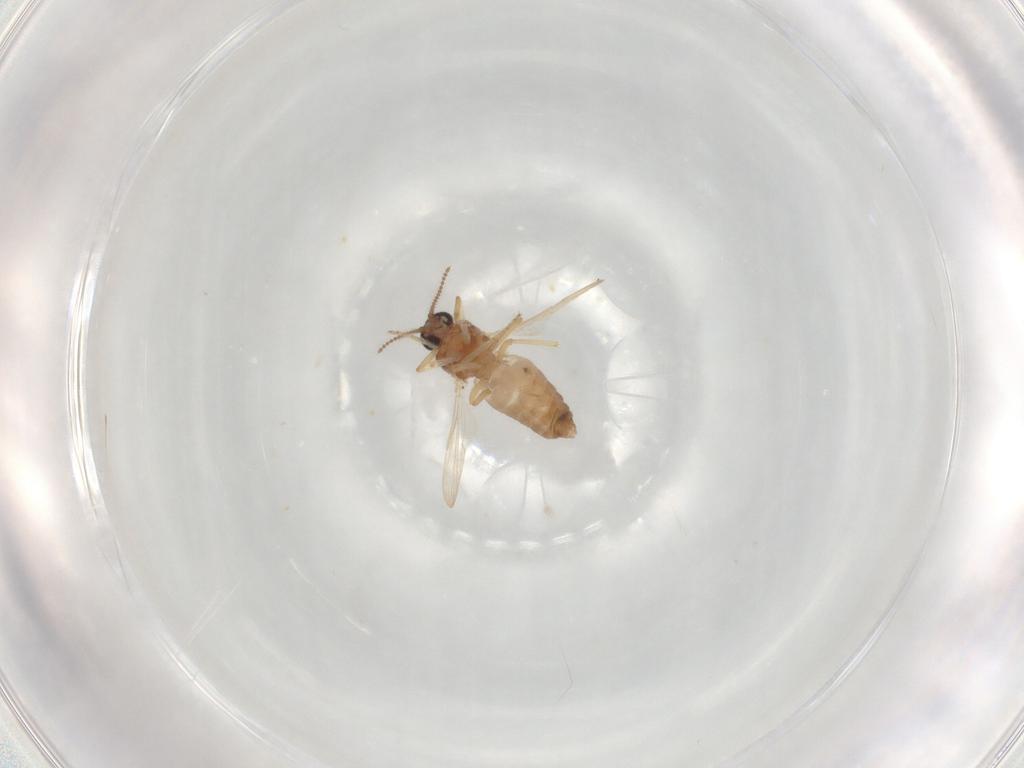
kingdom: Animalia
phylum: Arthropoda
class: Insecta
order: Diptera
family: Ceratopogonidae
